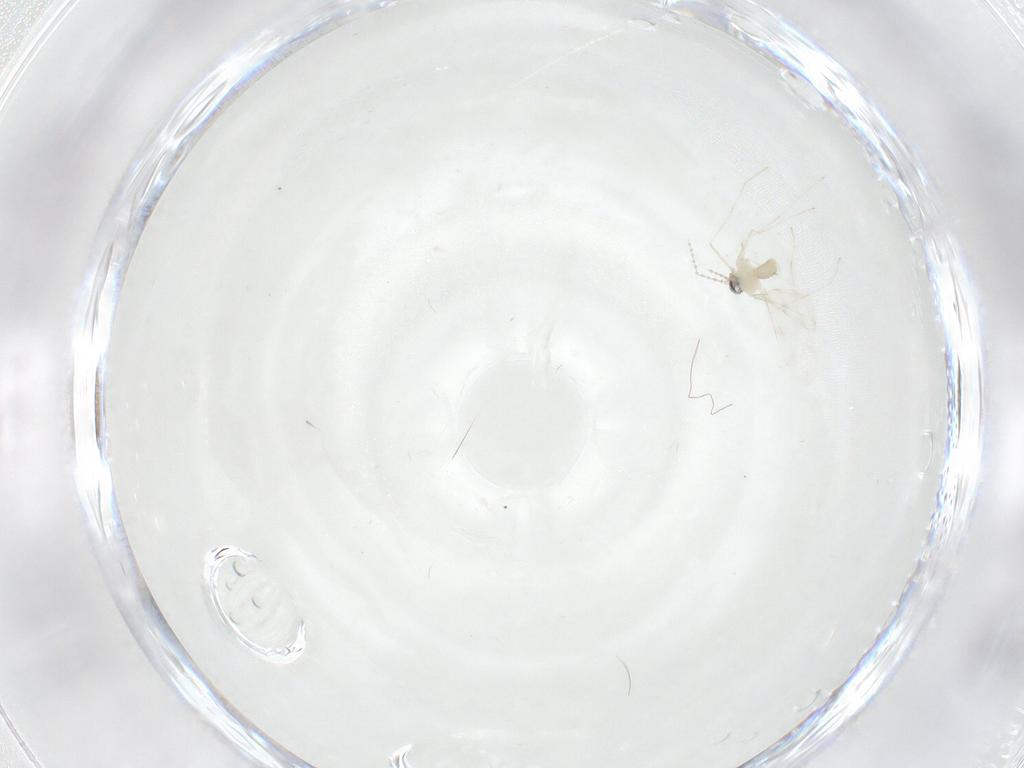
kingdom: Animalia
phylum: Arthropoda
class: Insecta
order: Diptera
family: Cecidomyiidae
